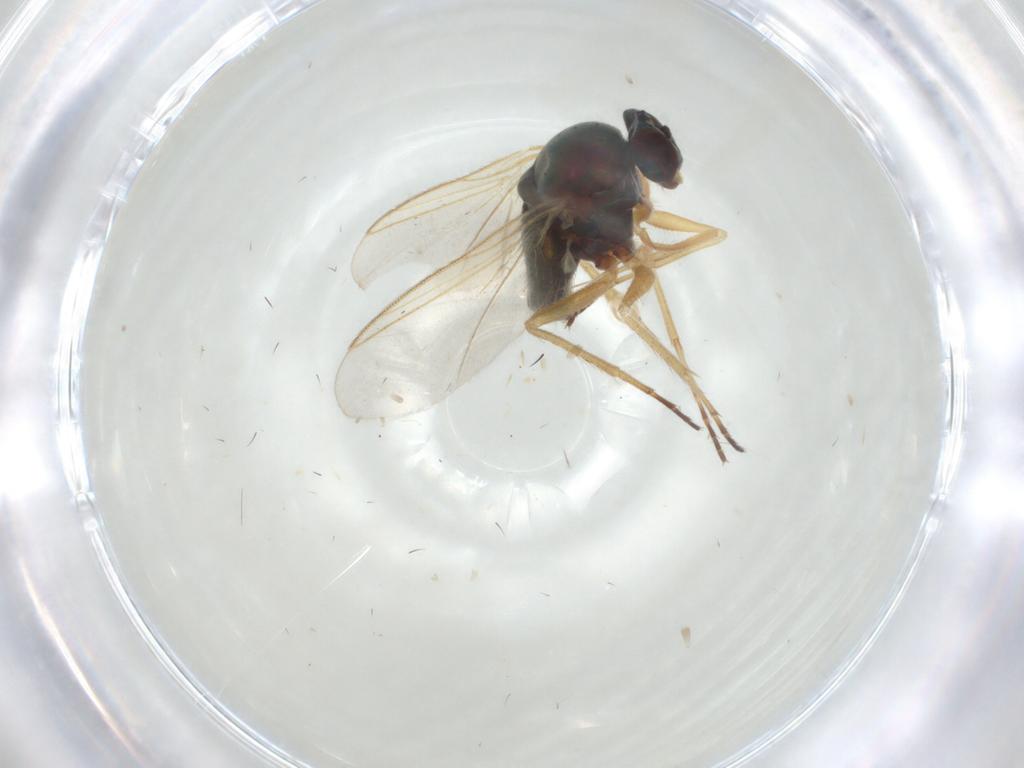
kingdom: Animalia
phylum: Arthropoda
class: Insecta
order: Diptera
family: Dolichopodidae
